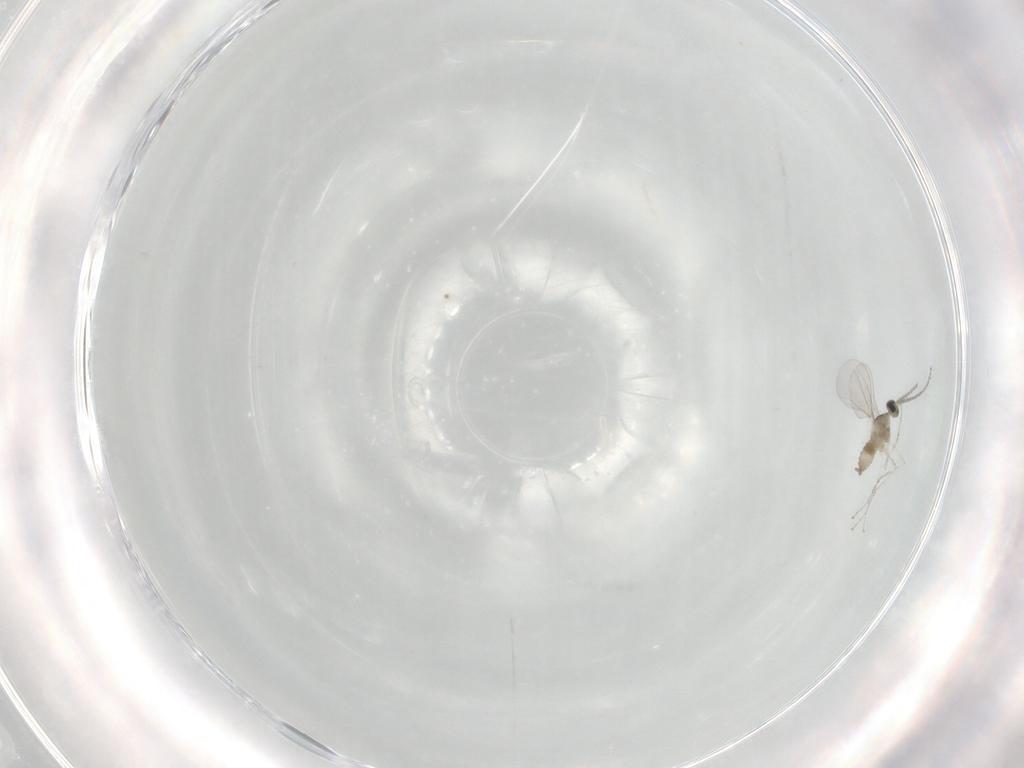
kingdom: Animalia
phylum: Arthropoda
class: Insecta
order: Diptera
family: Cecidomyiidae
